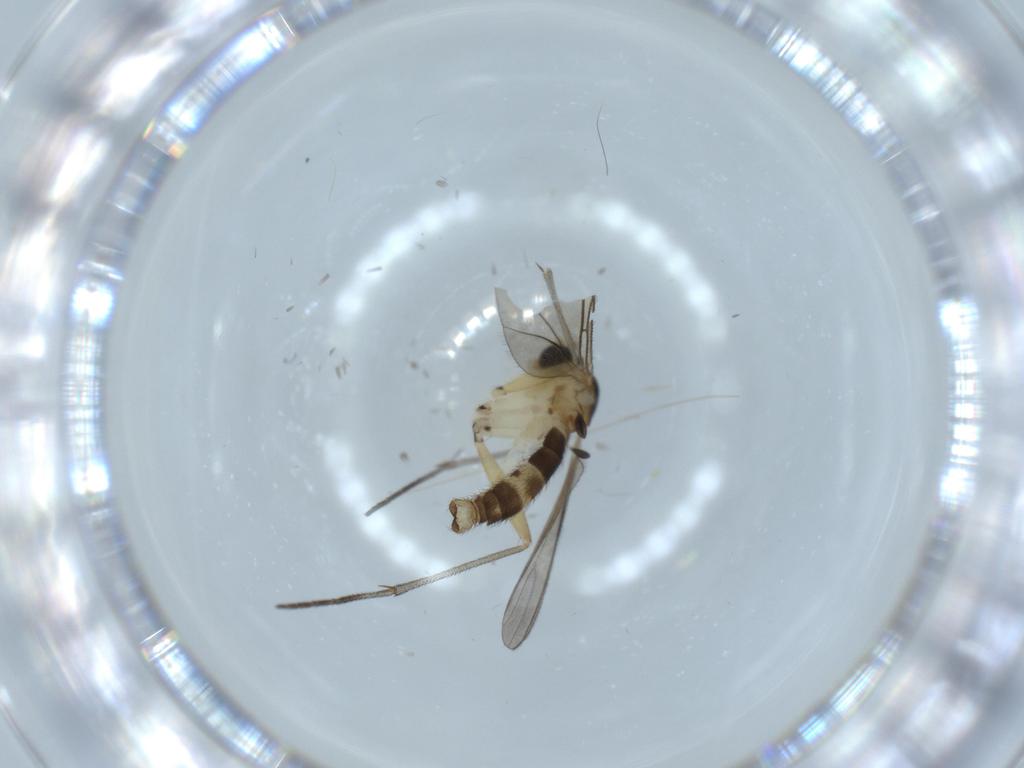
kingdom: Animalia
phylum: Arthropoda
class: Insecta
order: Diptera
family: Sciaridae
